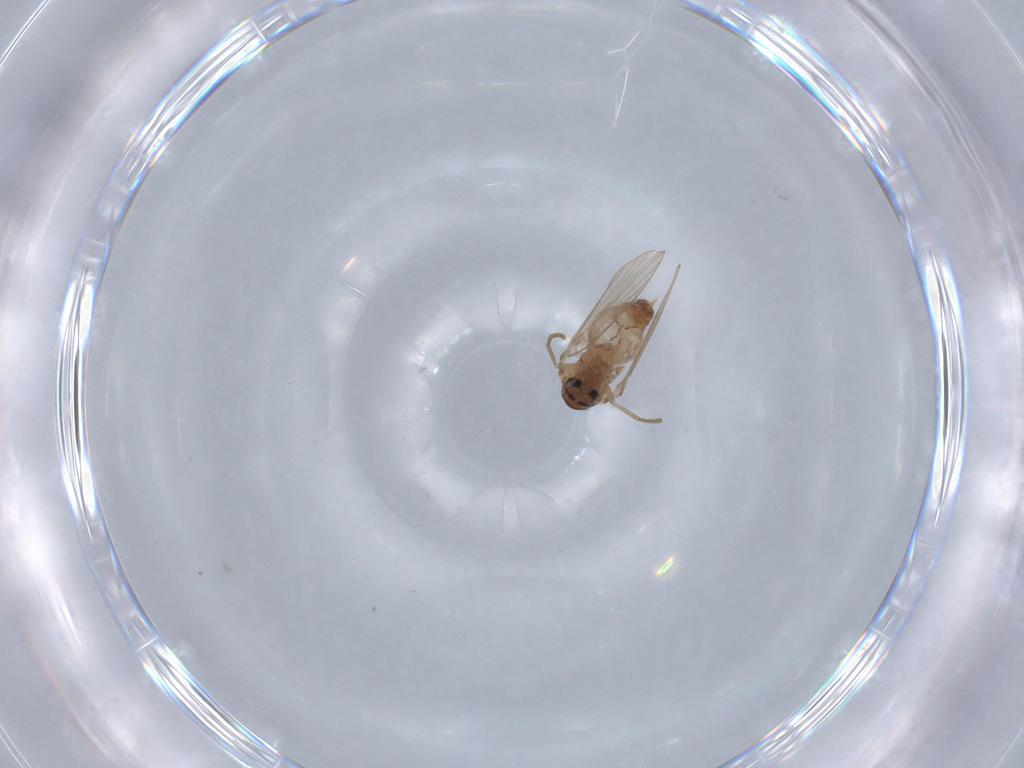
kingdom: Animalia
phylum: Arthropoda
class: Insecta
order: Diptera
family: Psychodidae
